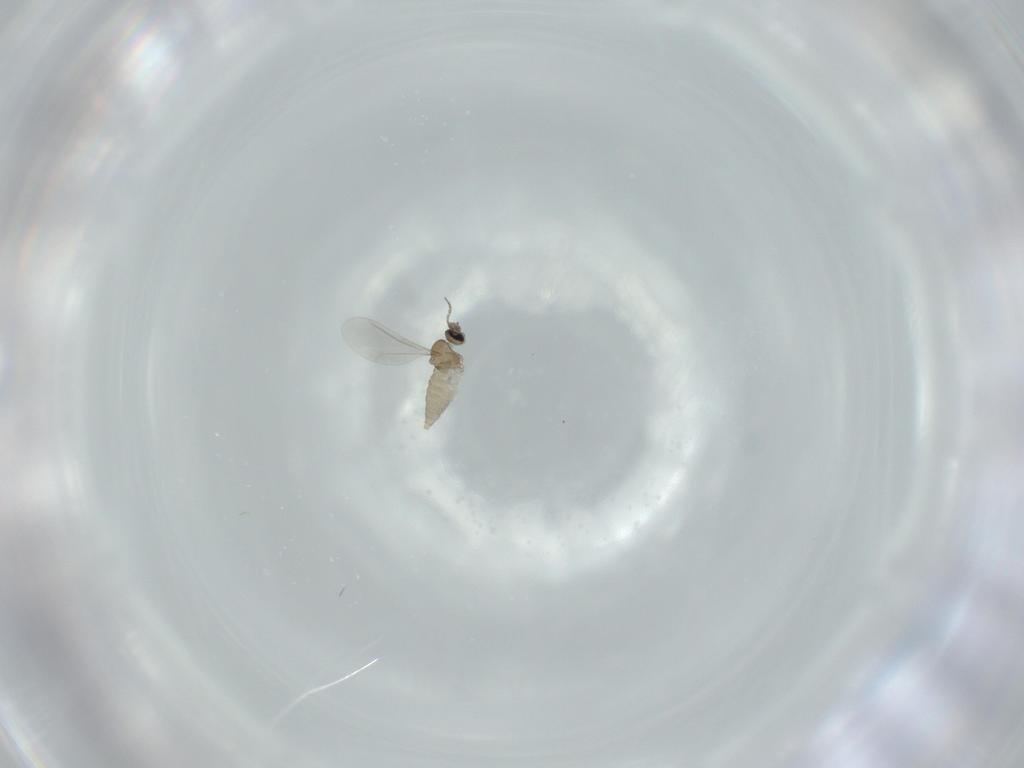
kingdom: Animalia
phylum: Arthropoda
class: Insecta
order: Diptera
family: Cecidomyiidae
